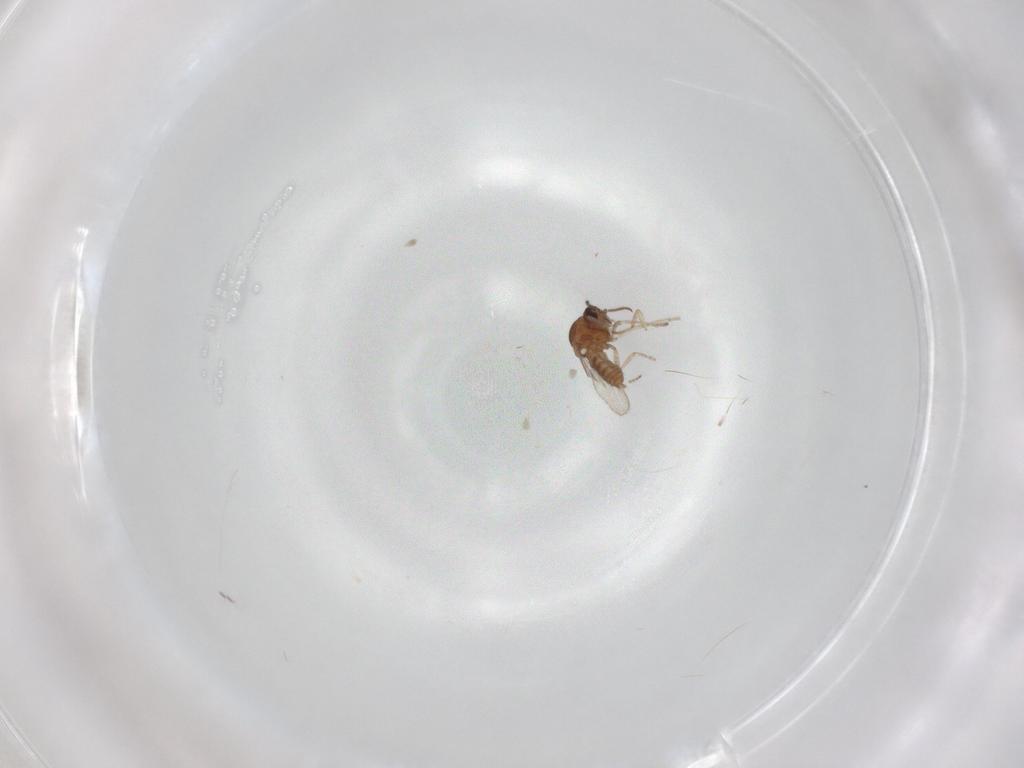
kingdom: Animalia
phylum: Arthropoda
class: Insecta
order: Diptera
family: Ceratopogonidae
